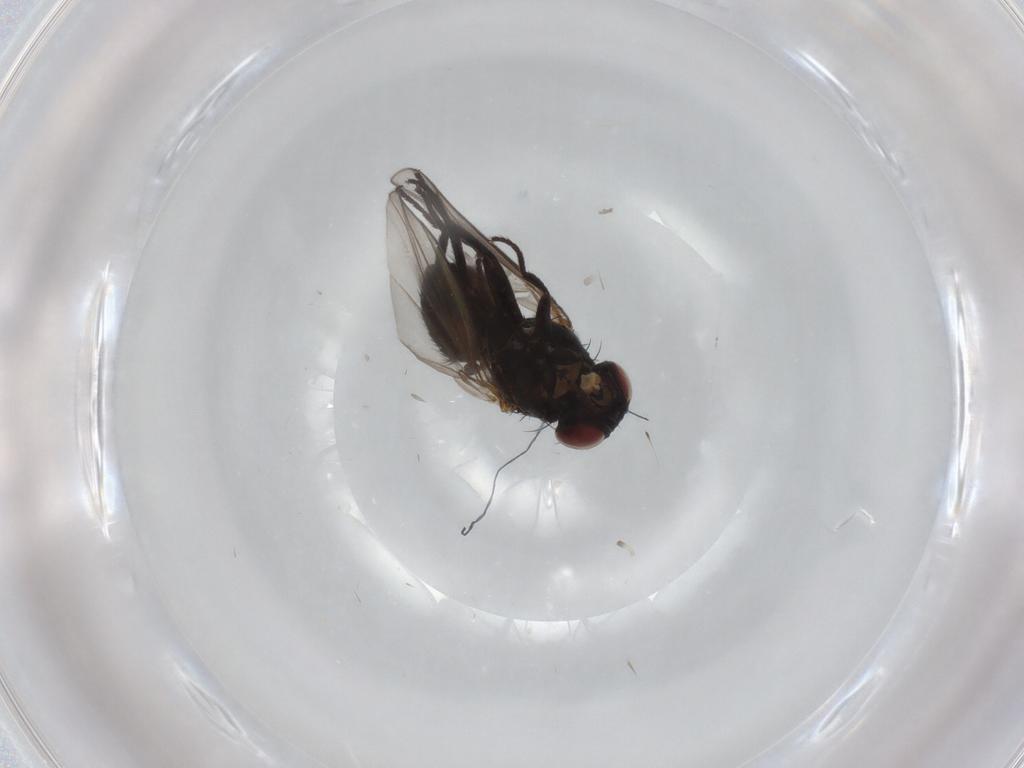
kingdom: Animalia
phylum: Arthropoda
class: Insecta
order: Diptera
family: Agromyzidae
